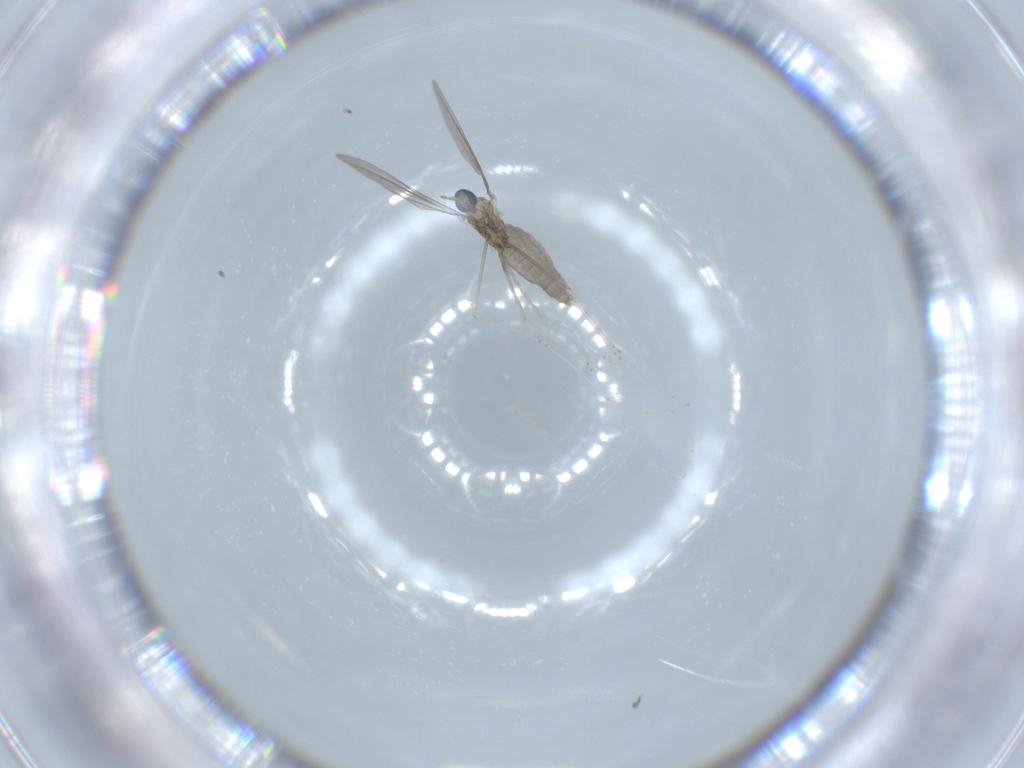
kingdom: Animalia
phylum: Arthropoda
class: Insecta
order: Diptera
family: Cecidomyiidae
